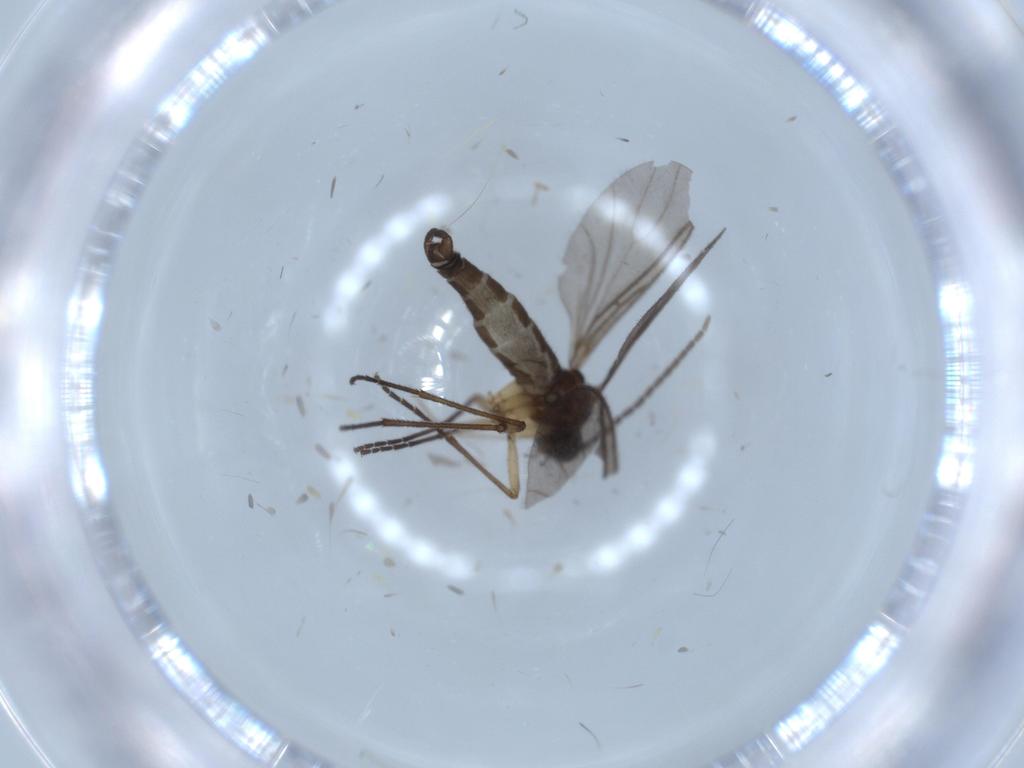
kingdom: Animalia
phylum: Arthropoda
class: Insecta
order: Diptera
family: Sciaridae
